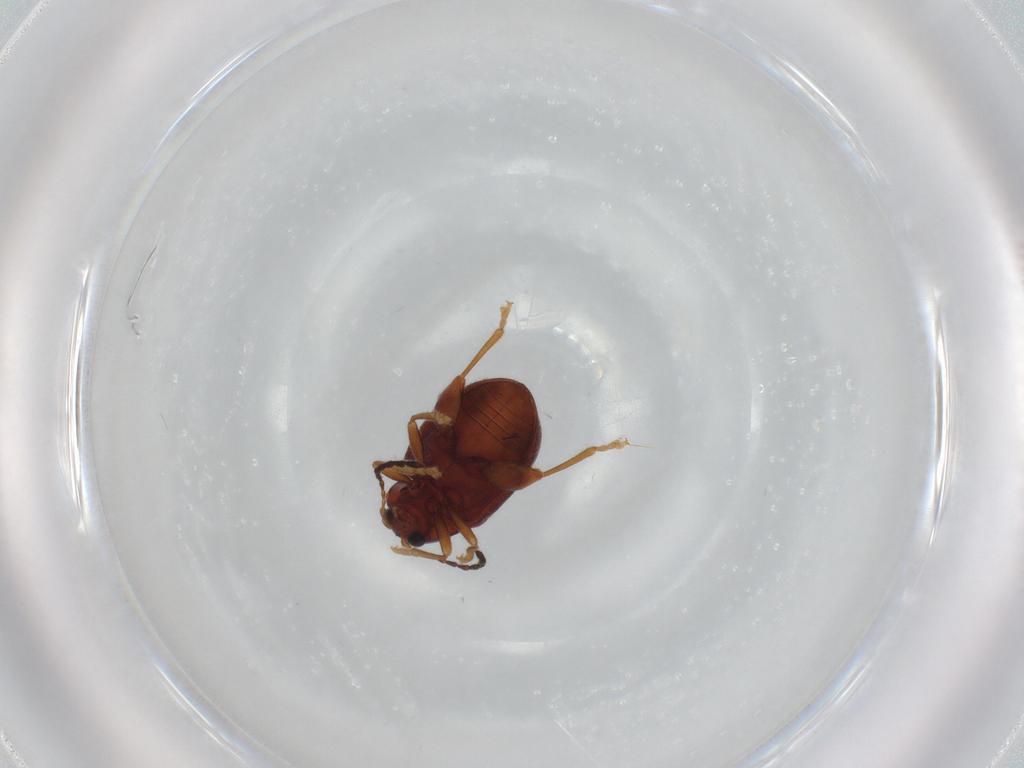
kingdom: Animalia
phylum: Arthropoda
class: Insecta
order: Coleoptera
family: Chrysomelidae
